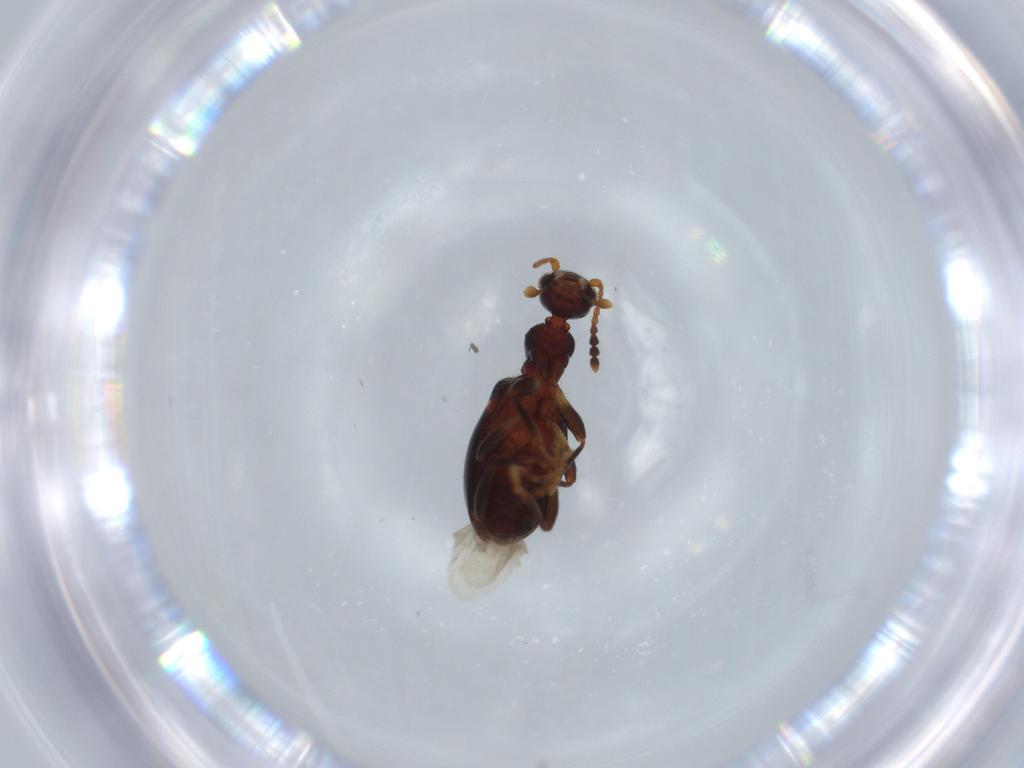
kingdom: Animalia
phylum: Arthropoda
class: Insecta
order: Coleoptera
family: Anthicidae
